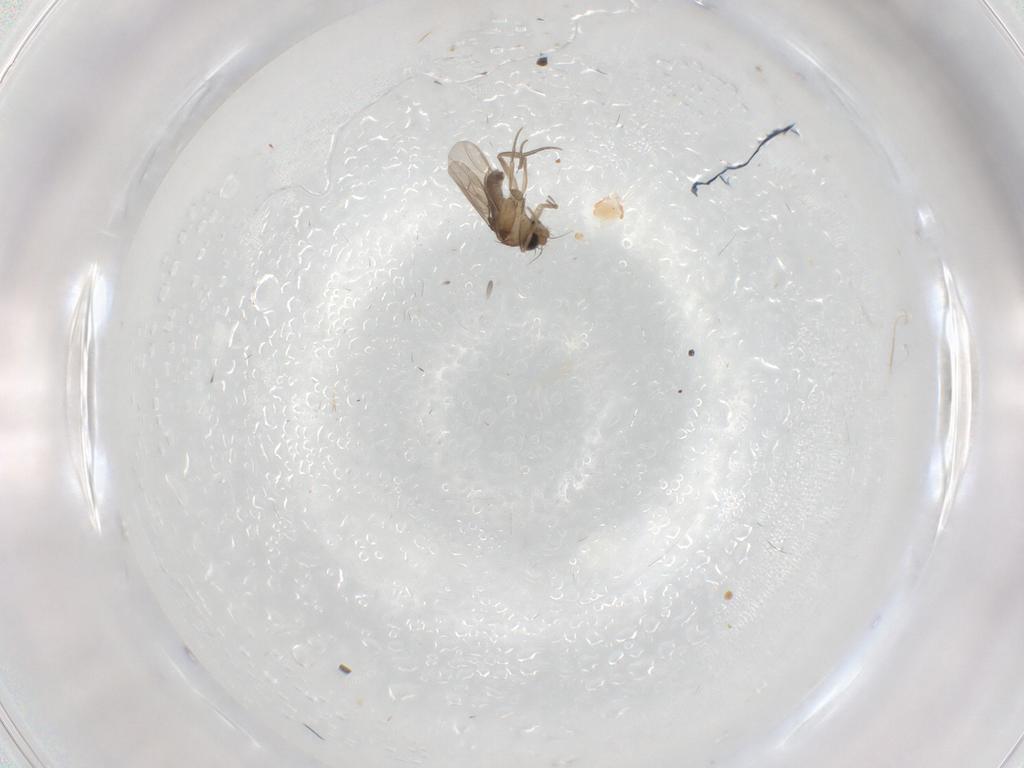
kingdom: Animalia
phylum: Arthropoda
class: Insecta
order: Diptera
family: Phoridae
